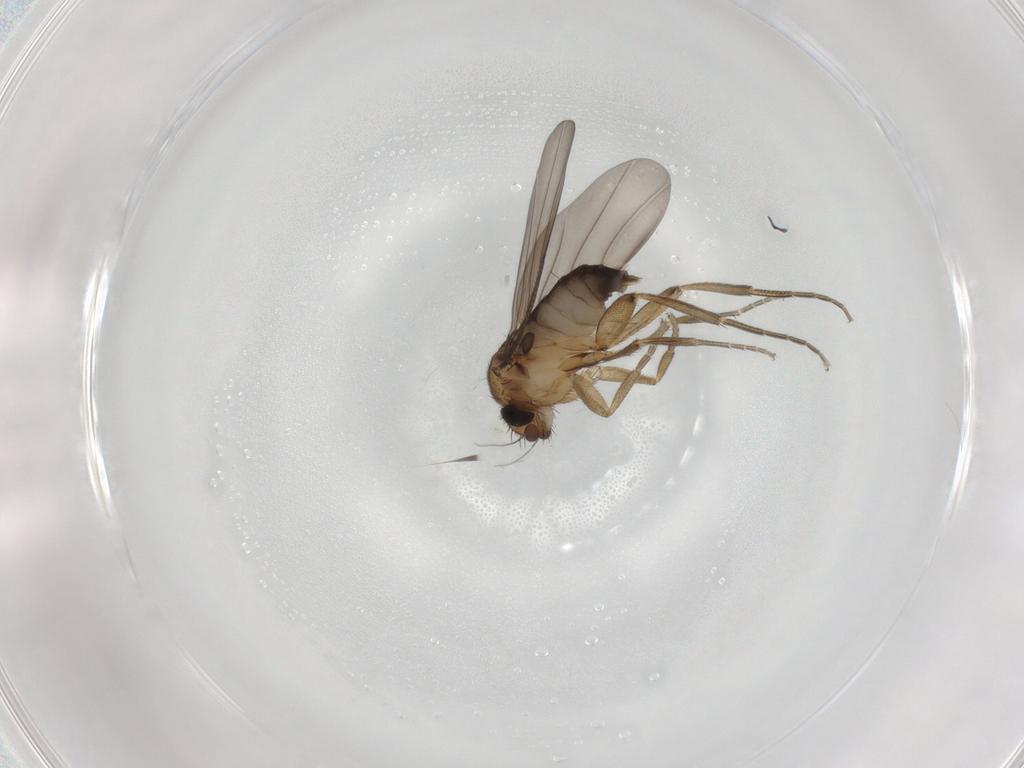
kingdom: Animalia
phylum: Arthropoda
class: Insecta
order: Diptera
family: Phoridae
